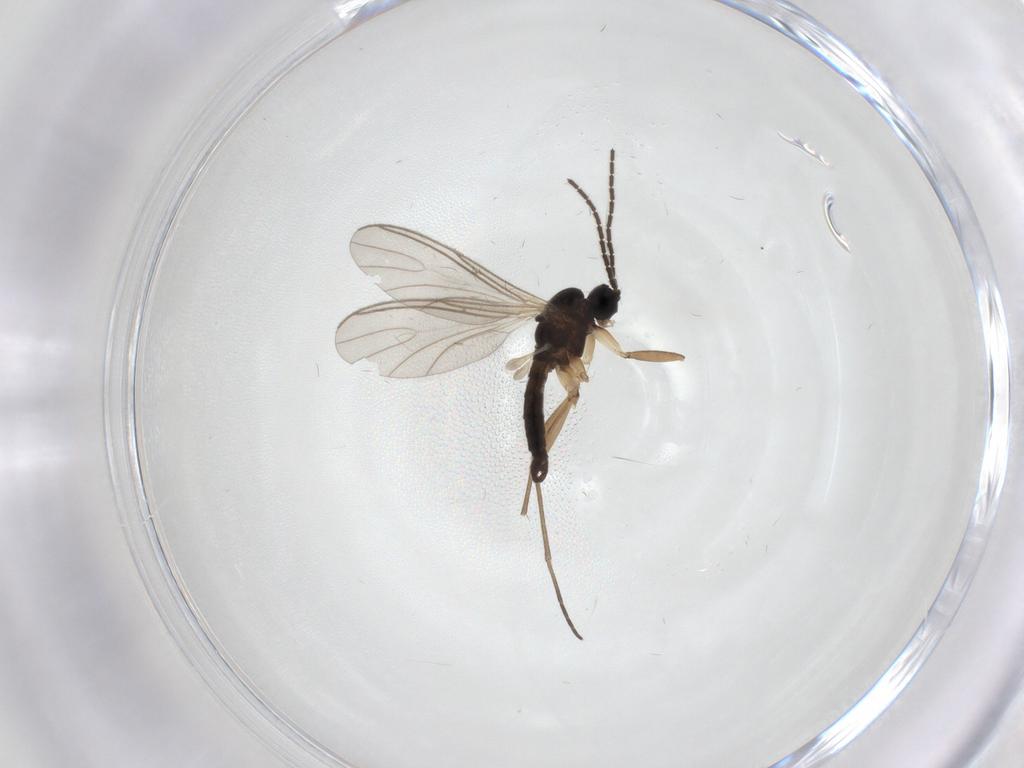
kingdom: Animalia
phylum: Arthropoda
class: Insecta
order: Diptera
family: Sciaridae
